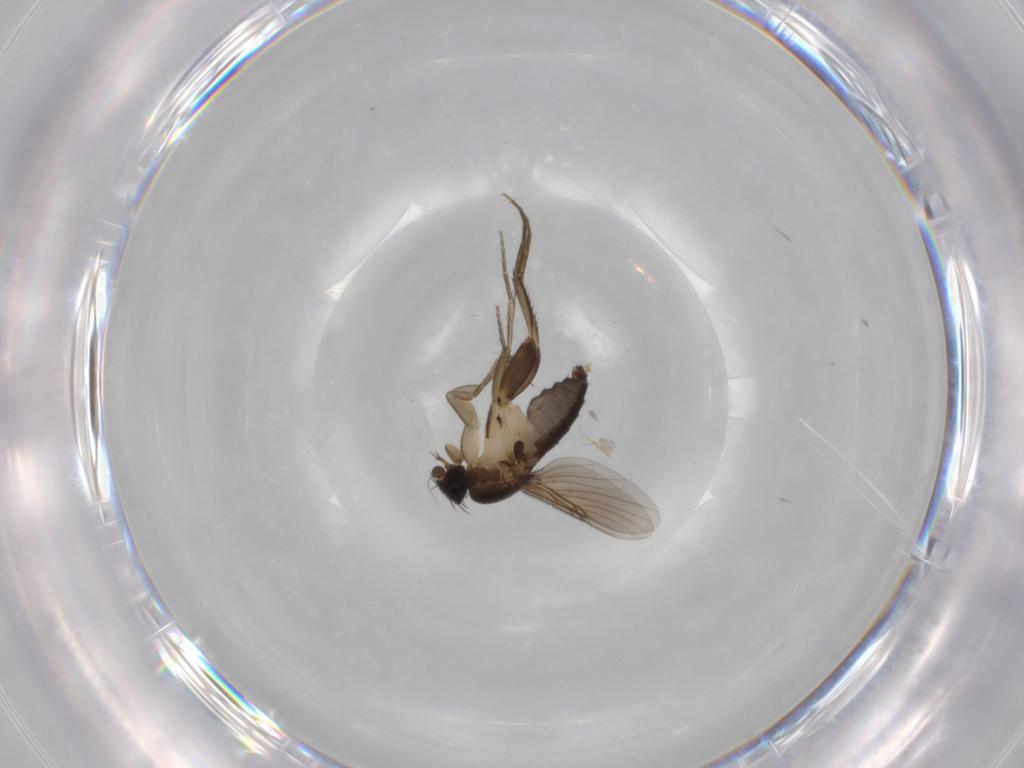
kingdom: Animalia
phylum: Arthropoda
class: Insecta
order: Diptera
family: Phoridae
